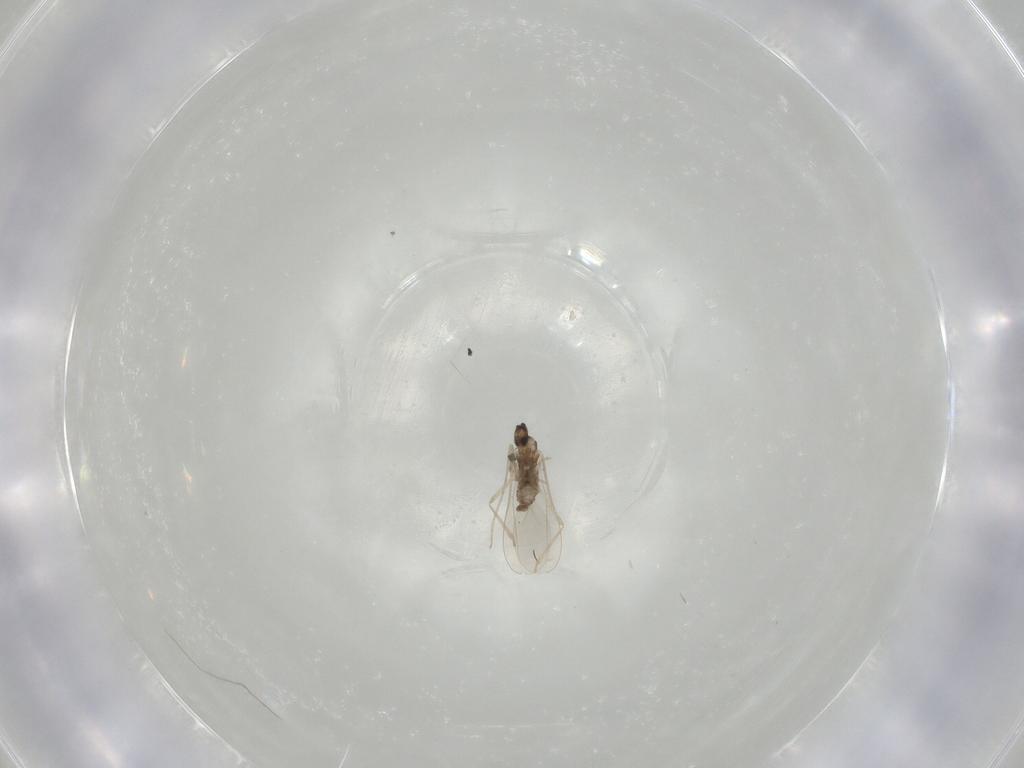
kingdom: Animalia
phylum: Arthropoda
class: Insecta
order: Diptera
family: Cecidomyiidae
